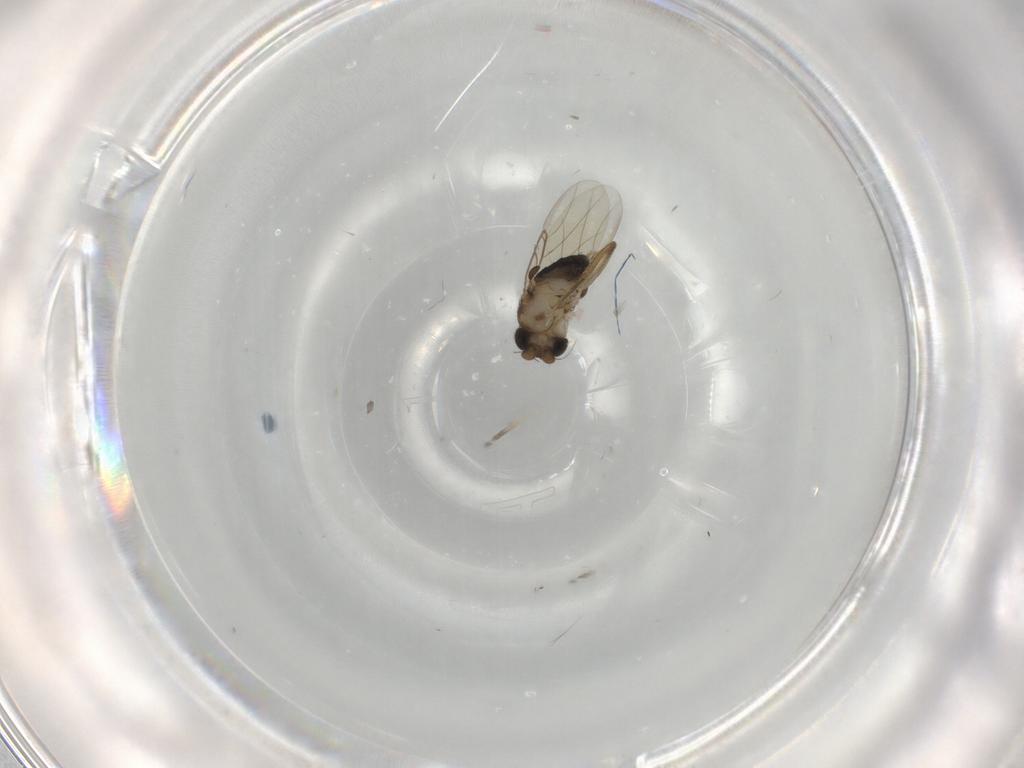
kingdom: Animalia
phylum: Arthropoda
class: Insecta
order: Diptera
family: Phoridae
